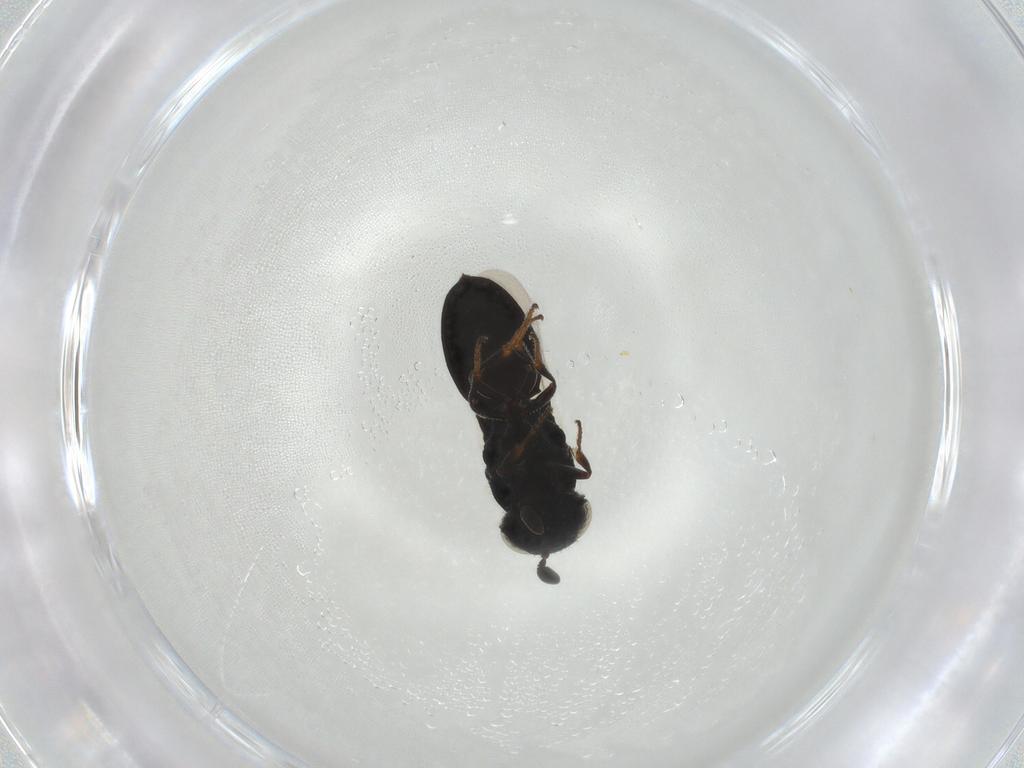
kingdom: Animalia
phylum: Arthropoda
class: Insecta
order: Hymenoptera
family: Scelionidae
